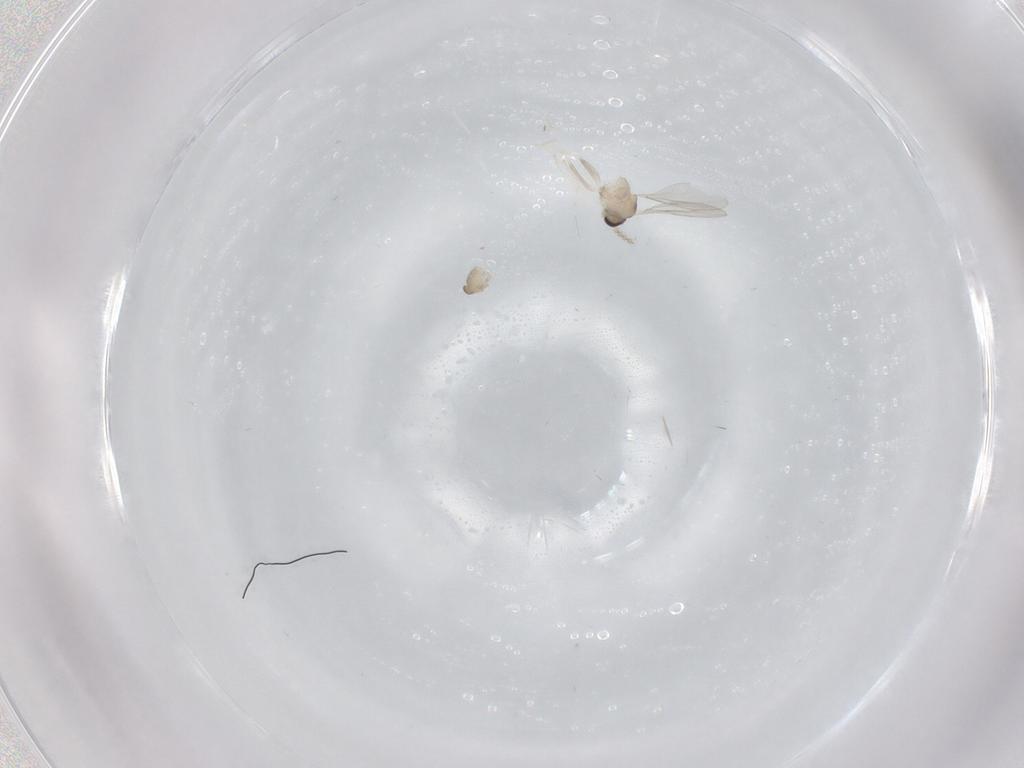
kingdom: Animalia
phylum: Arthropoda
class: Insecta
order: Diptera
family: Cecidomyiidae
